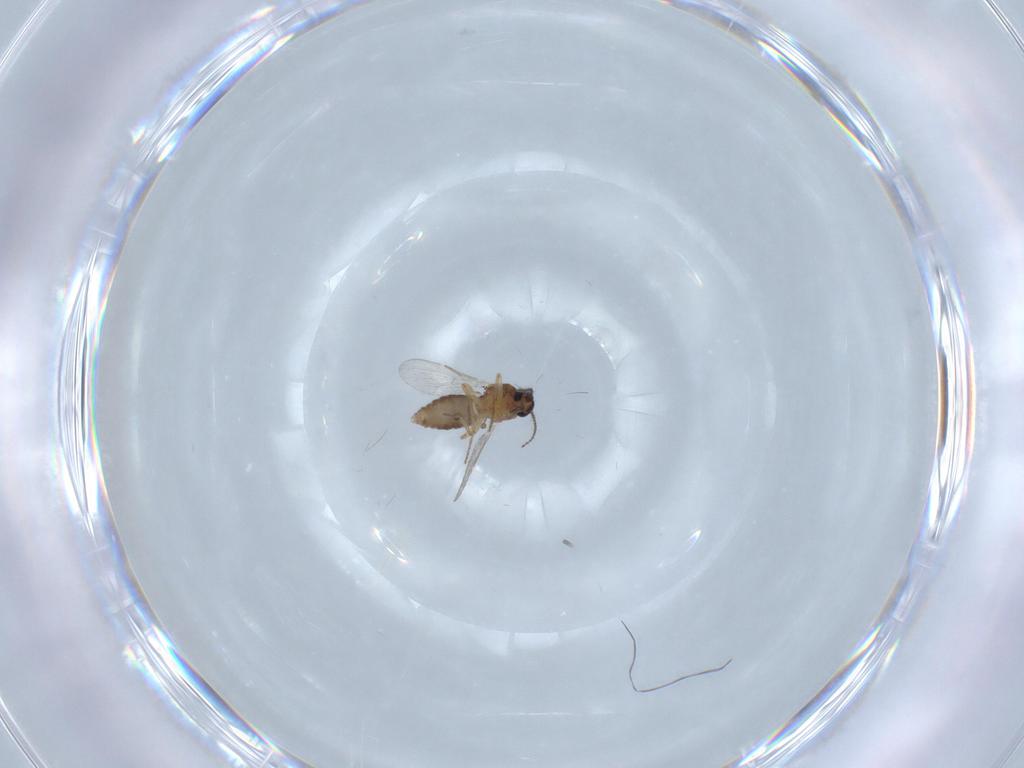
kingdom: Animalia
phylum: Arthropoda
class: Insecta
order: Diptera
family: Ceratopogonidae
